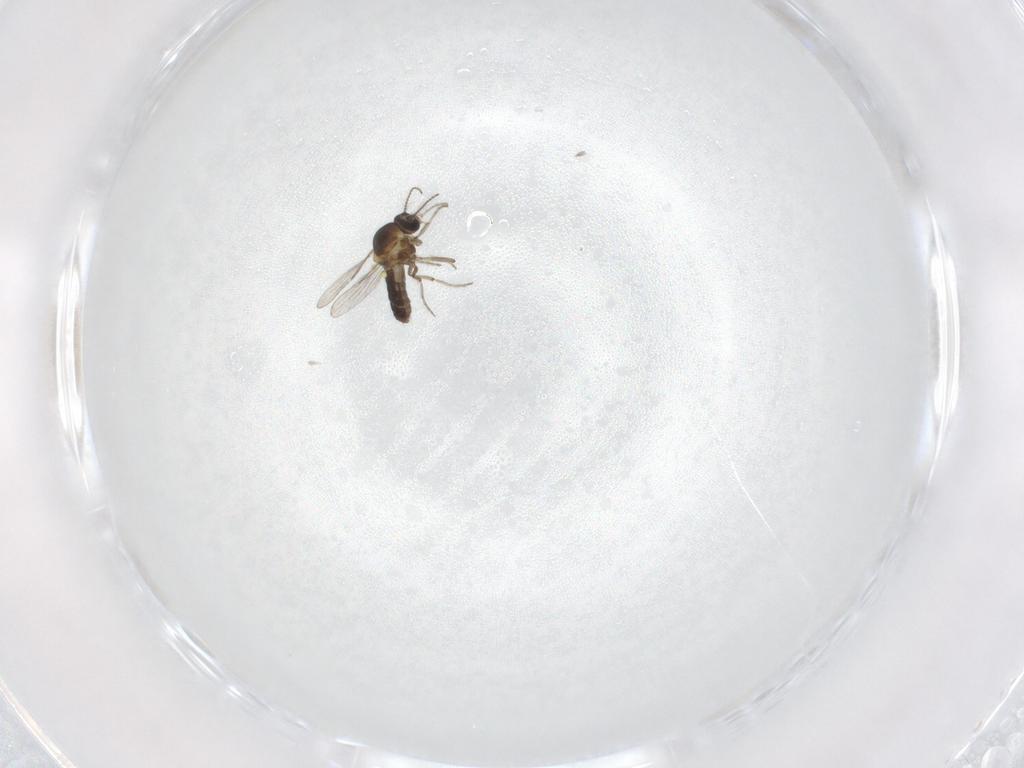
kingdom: Animalia
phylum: Arthropoda
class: Insecta
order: Diptera
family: Ceratopogonidae
